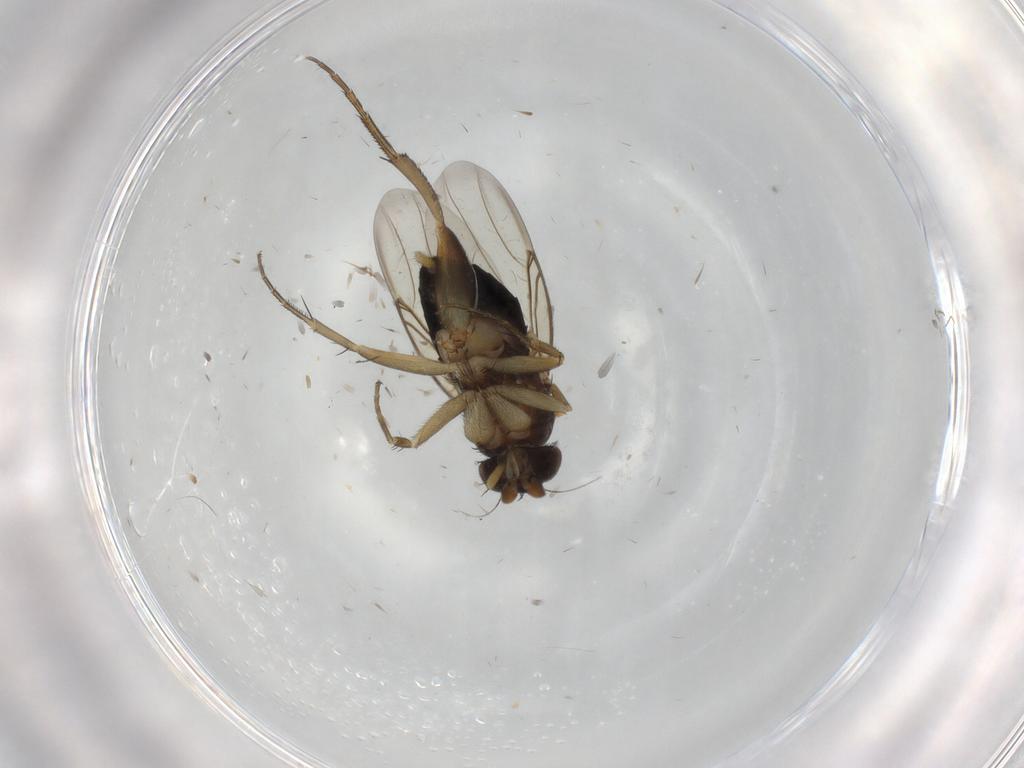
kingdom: Animalia
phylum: Arthropoda
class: Insecta
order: Diptera
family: Phoridae
